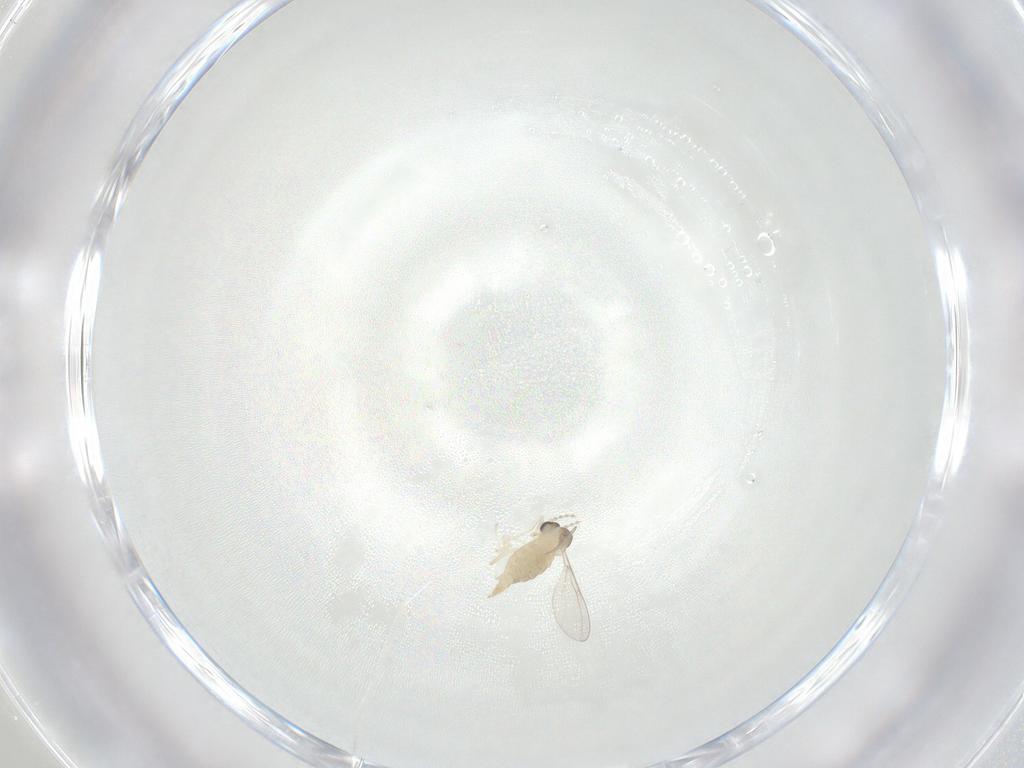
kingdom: Animalia
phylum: Arthropoda
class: Insecta
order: Diptera
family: Cecidomyiidae
